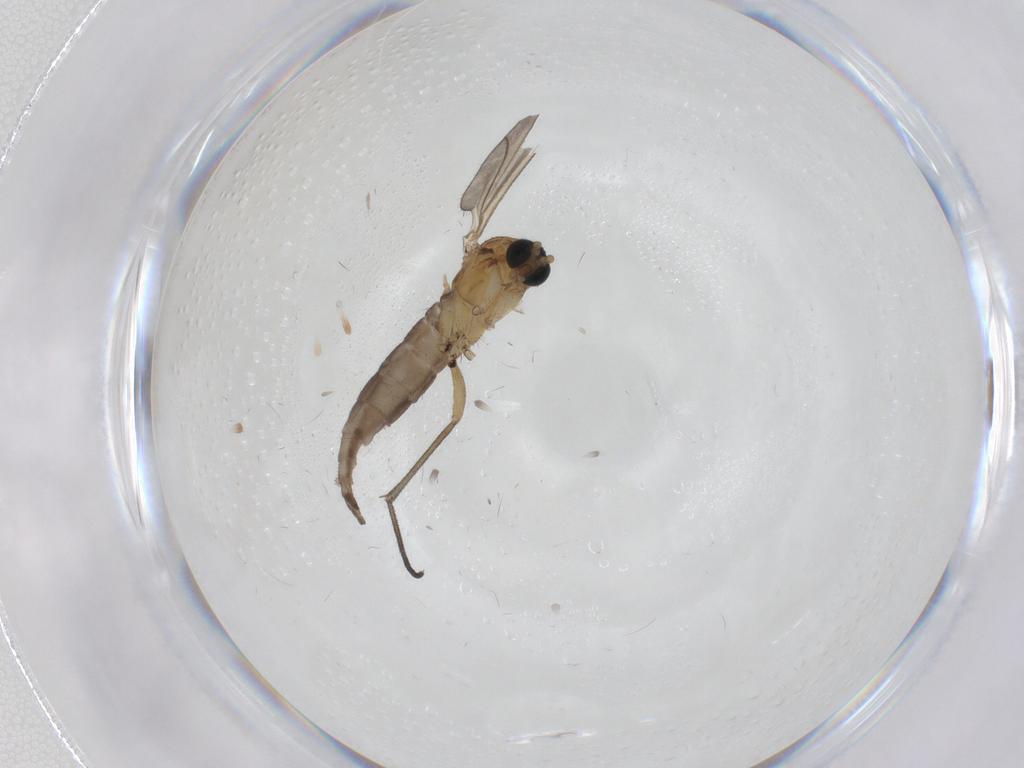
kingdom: Animalia
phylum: Arthropoda
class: Insecta
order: Diptera
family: Sciaridae
